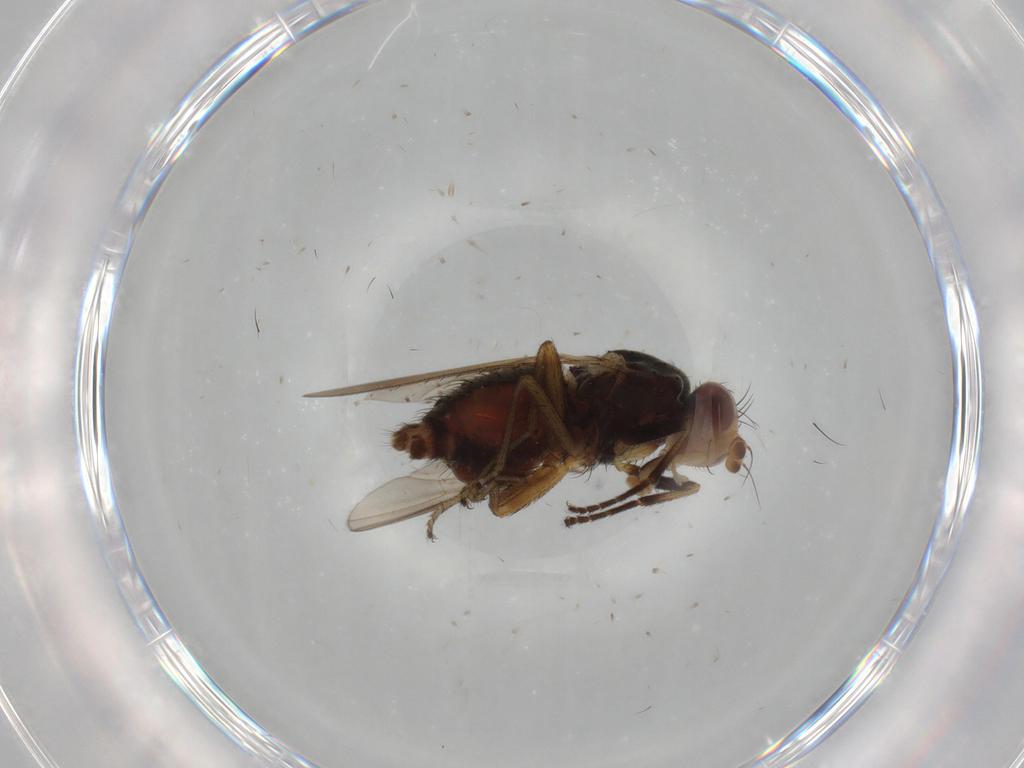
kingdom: Animalia
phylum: Arthropoda
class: Insecta
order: Diptera
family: Ulidiidae
